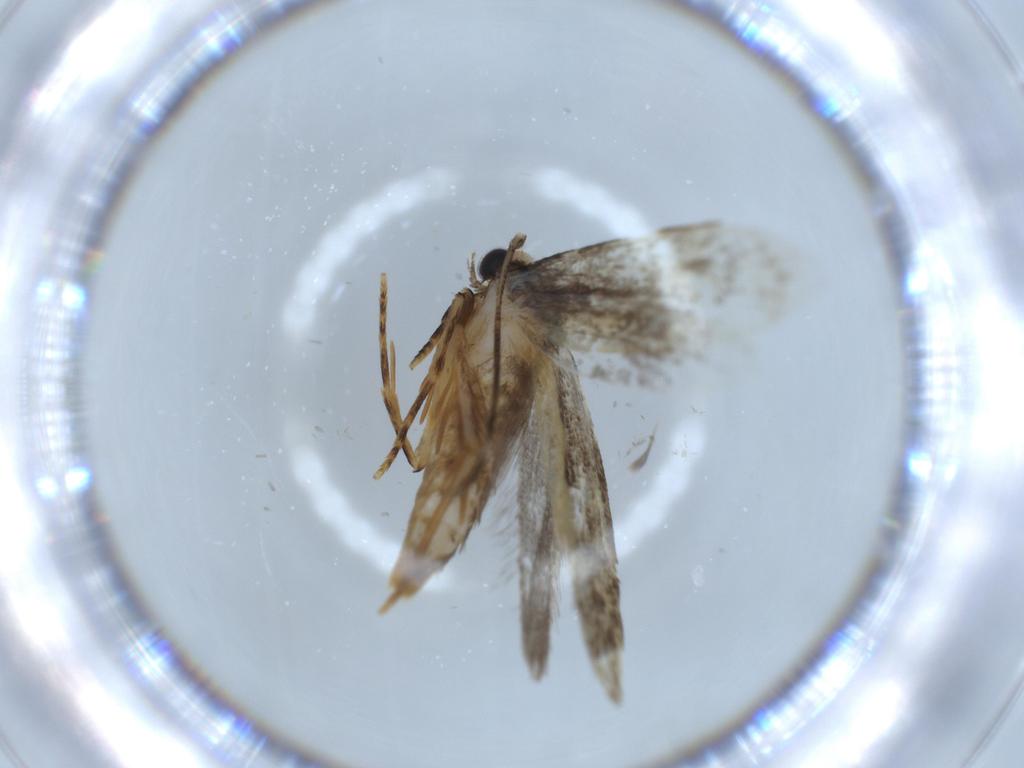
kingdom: Animalia
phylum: Arthropoda
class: Insecta
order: Lepidoptera
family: Tineidae
